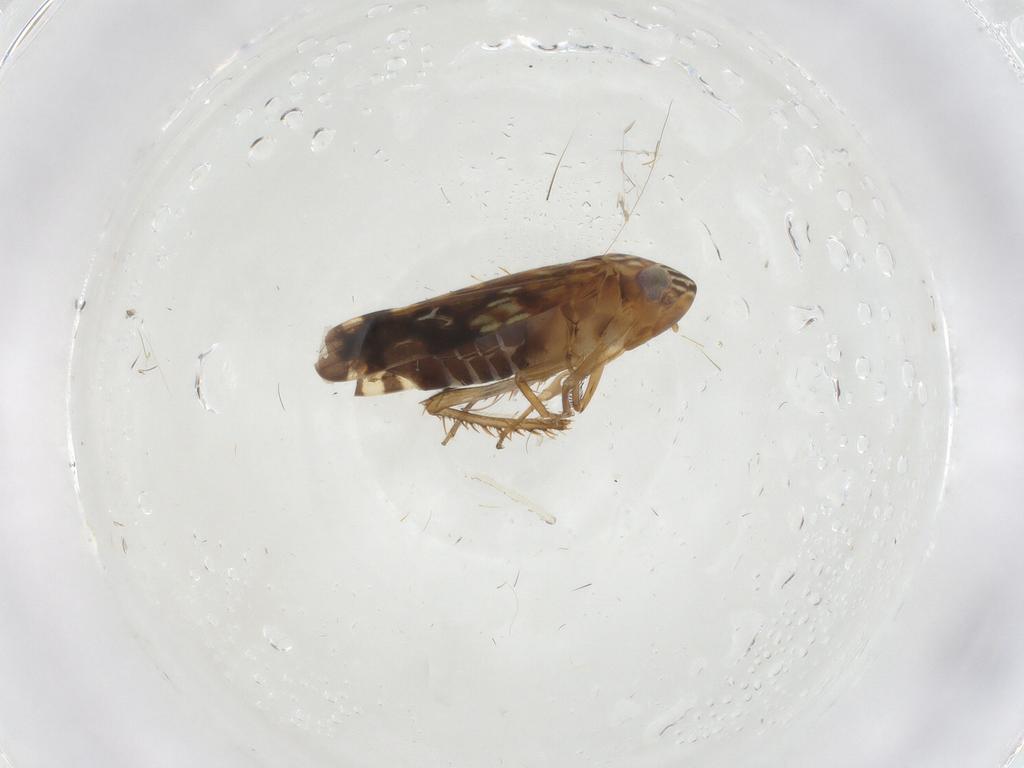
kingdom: Animalia
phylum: Arthropoda
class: Insecta
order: Hemiptera
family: Cicadellidae
